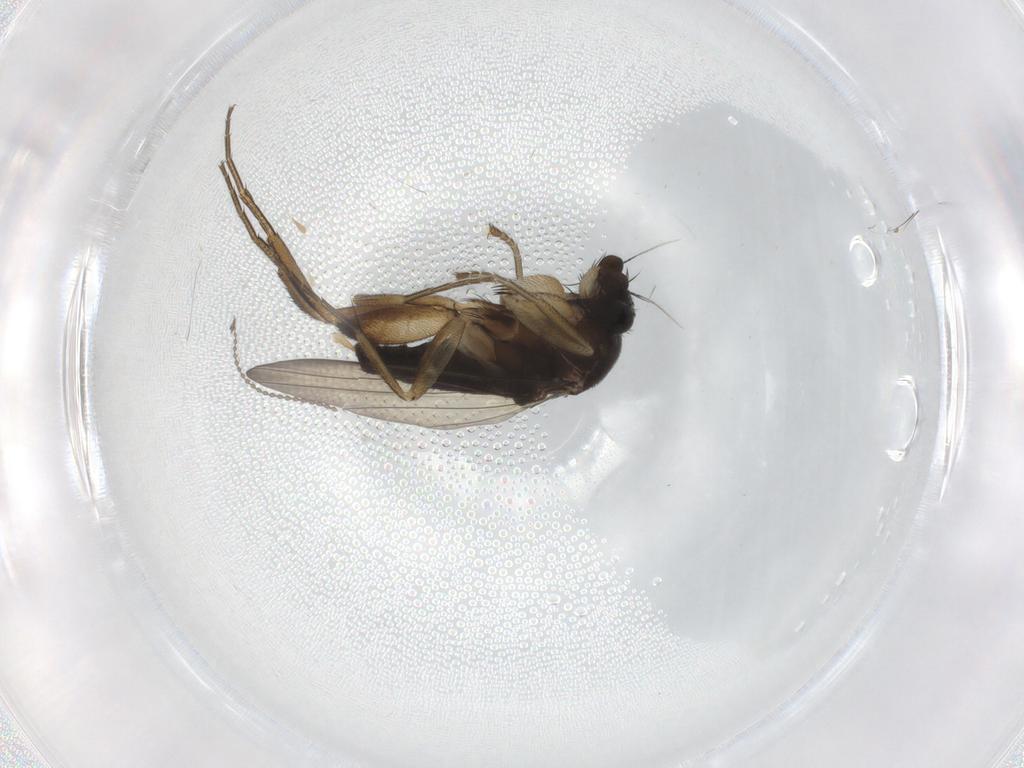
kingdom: Animalia
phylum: Arthropoda
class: Insecta
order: Diptera
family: Phoridae
